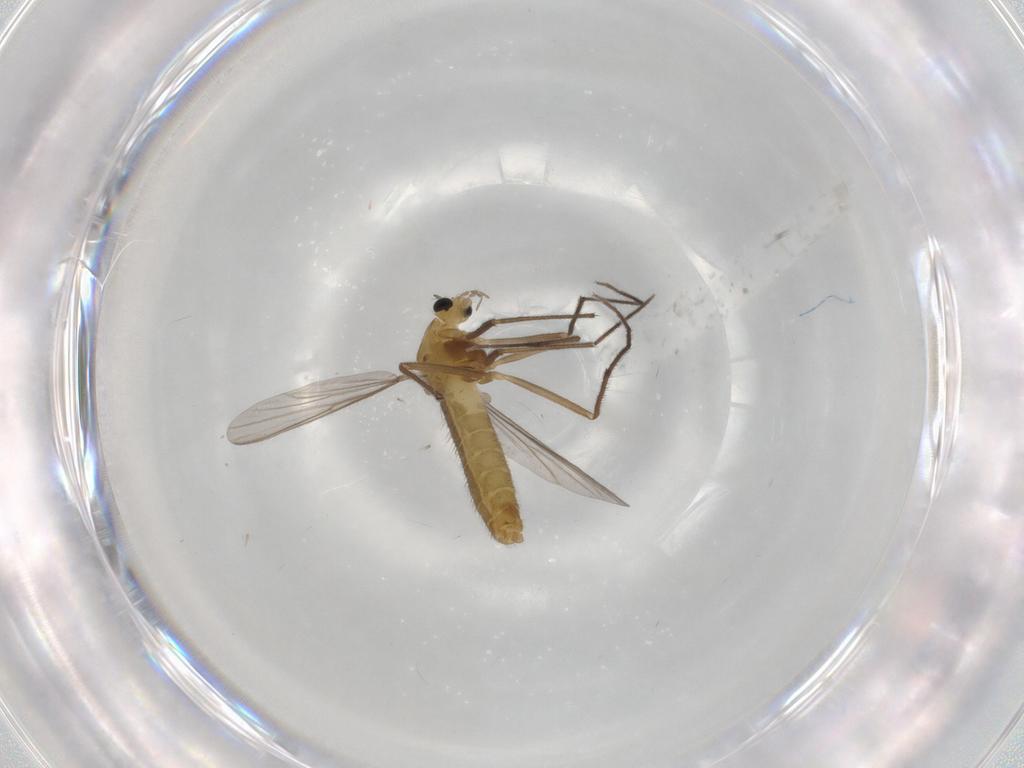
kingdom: Animalia
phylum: Arthropoda
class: Insecta
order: Diptera
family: Chironomidae
